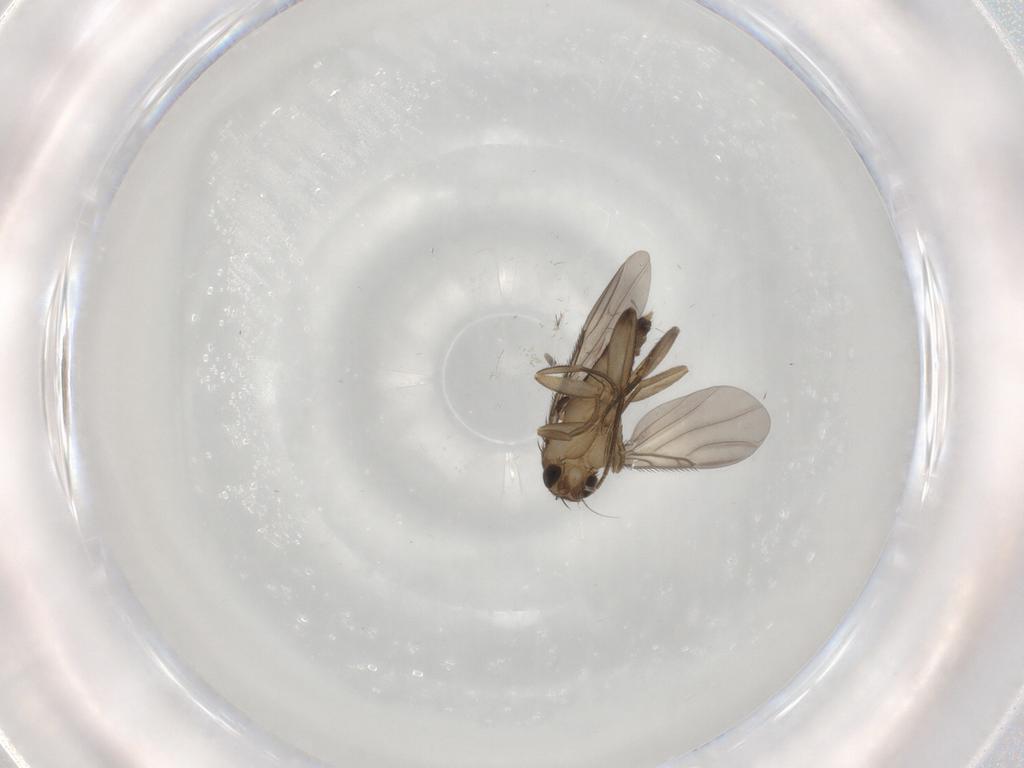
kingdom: Animalia
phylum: Arthropoda
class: Insecta
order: Diptera
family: Phoridae
